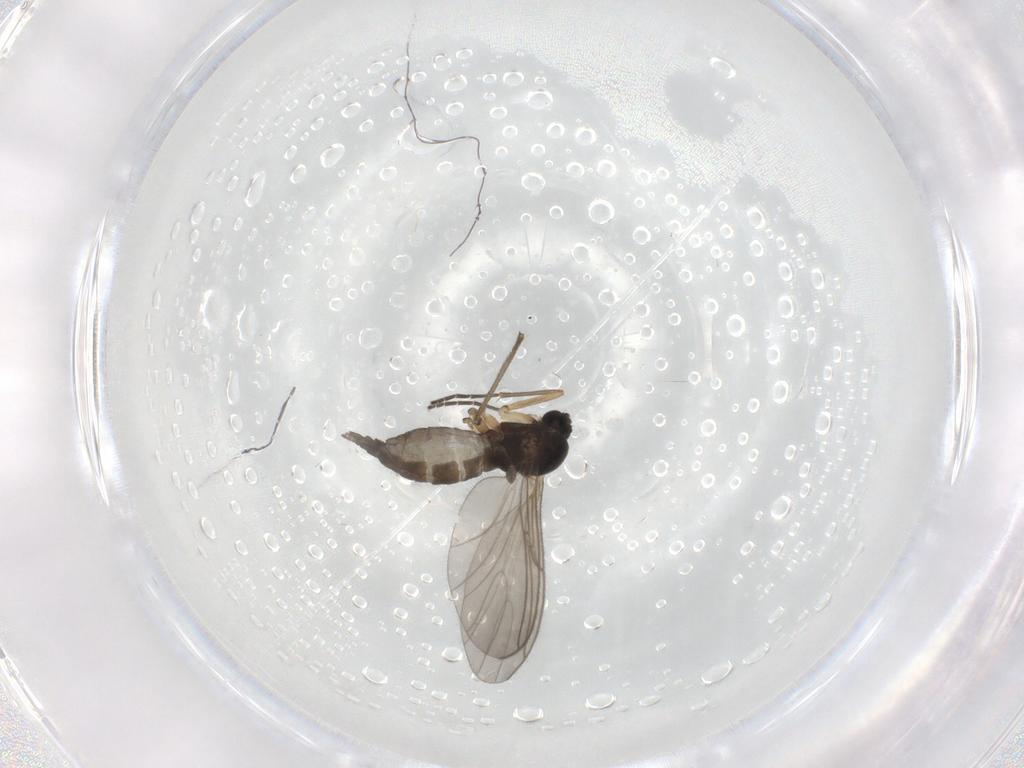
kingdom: Animalia
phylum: Arthropoda
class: Insecta
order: Diptera
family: Sciaridae
